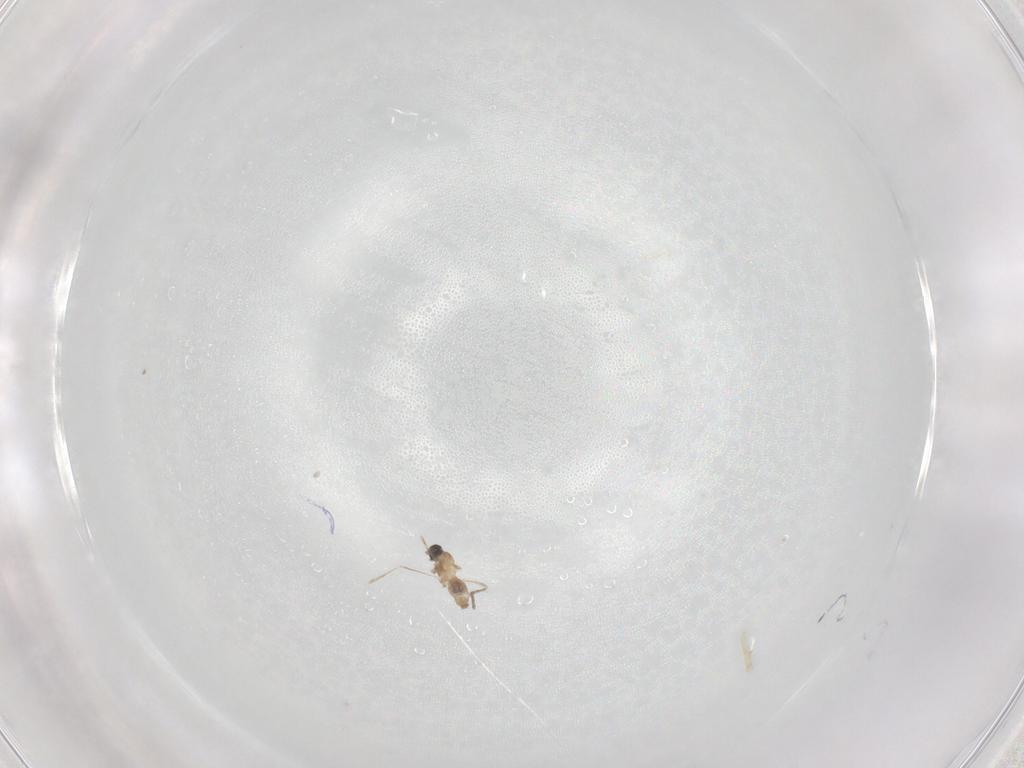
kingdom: Animalia
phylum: Arthropoda
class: Insecta
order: Diptera
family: Cecidomyiidae
